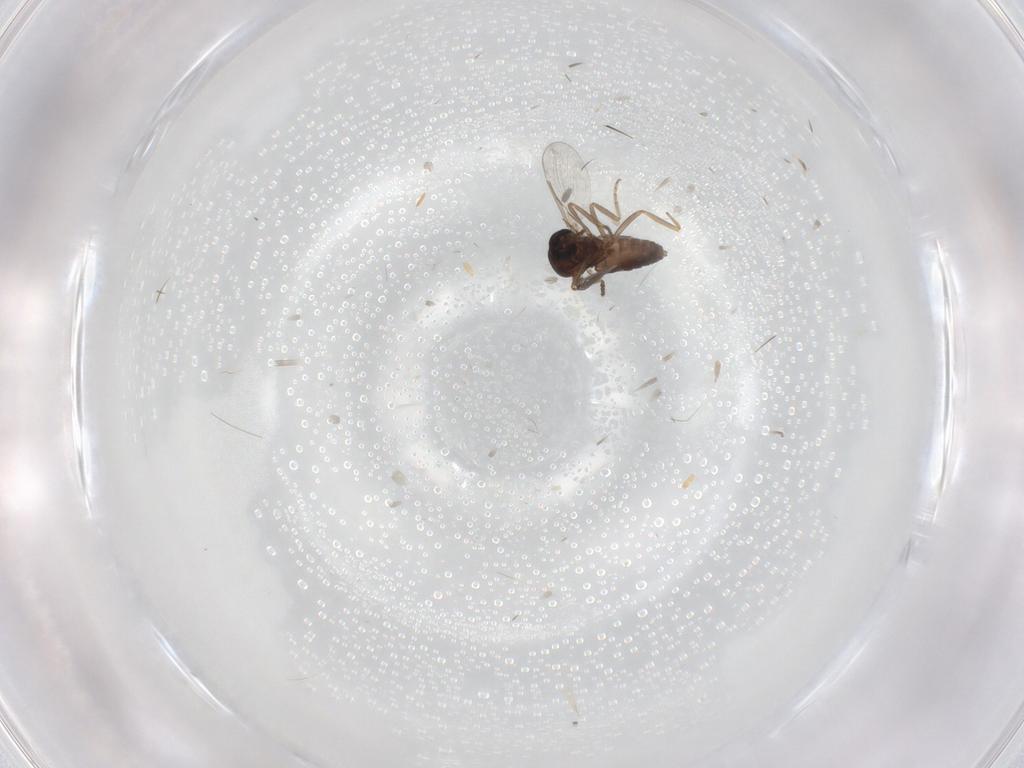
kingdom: Animalia
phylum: Arthropoda
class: Insecta
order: Diptera
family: Ceratopogonidae
